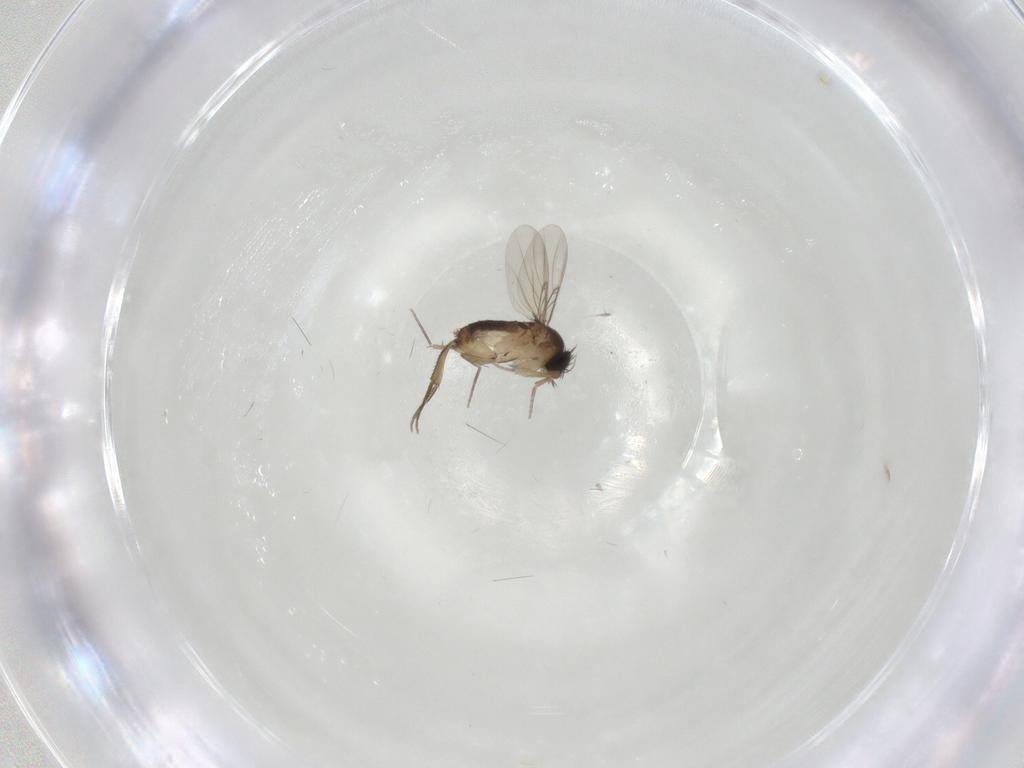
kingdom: Animalia
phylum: Arthropoda
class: Insecta
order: Diptera
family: Phoridae
